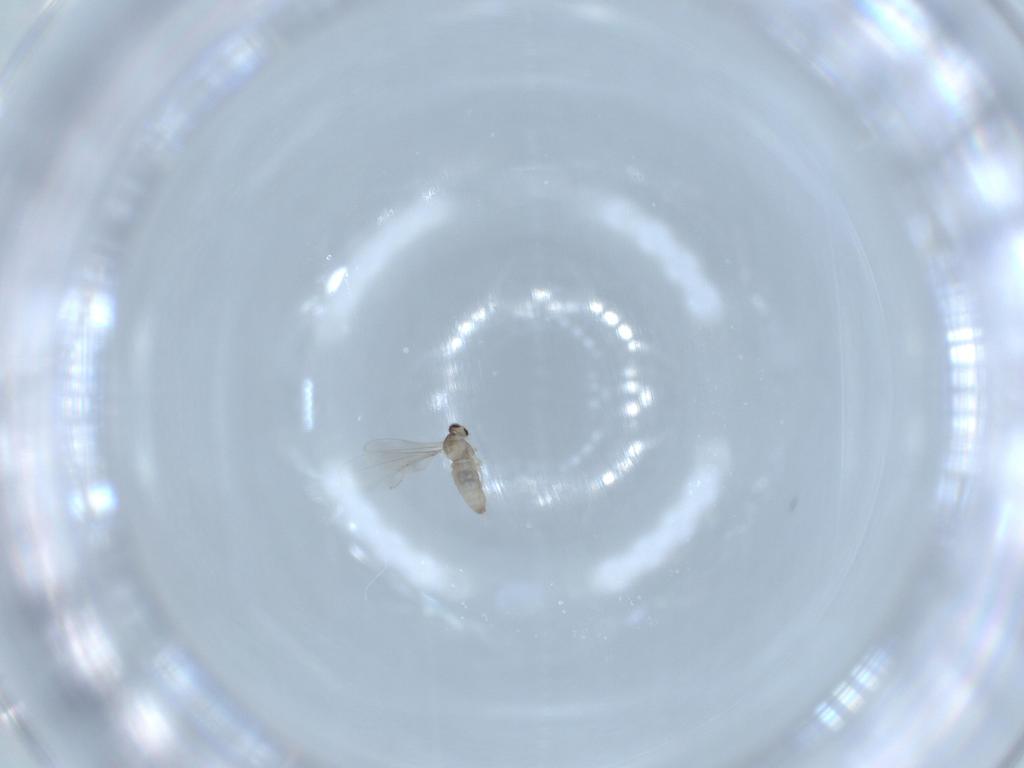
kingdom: Animalia
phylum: Arthropoda
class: Insecta
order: Diptera
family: Cecidomyiidae
